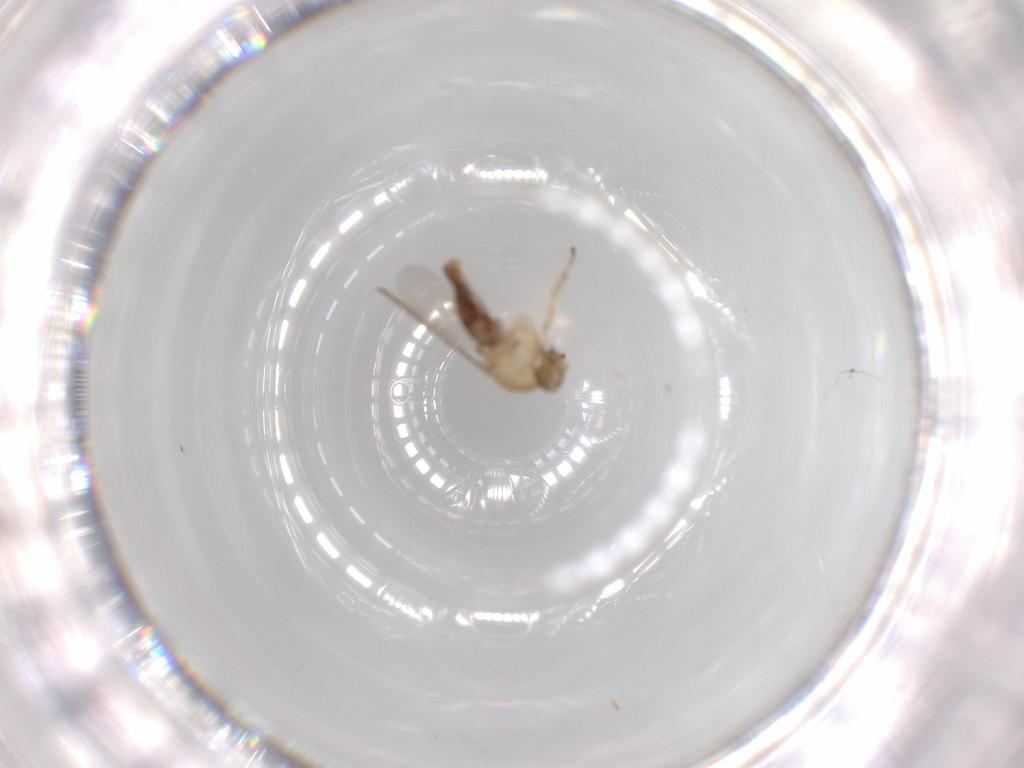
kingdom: Animalia
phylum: Arthropoda
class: Insecta
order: Diptera
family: Ceratopogonidae
